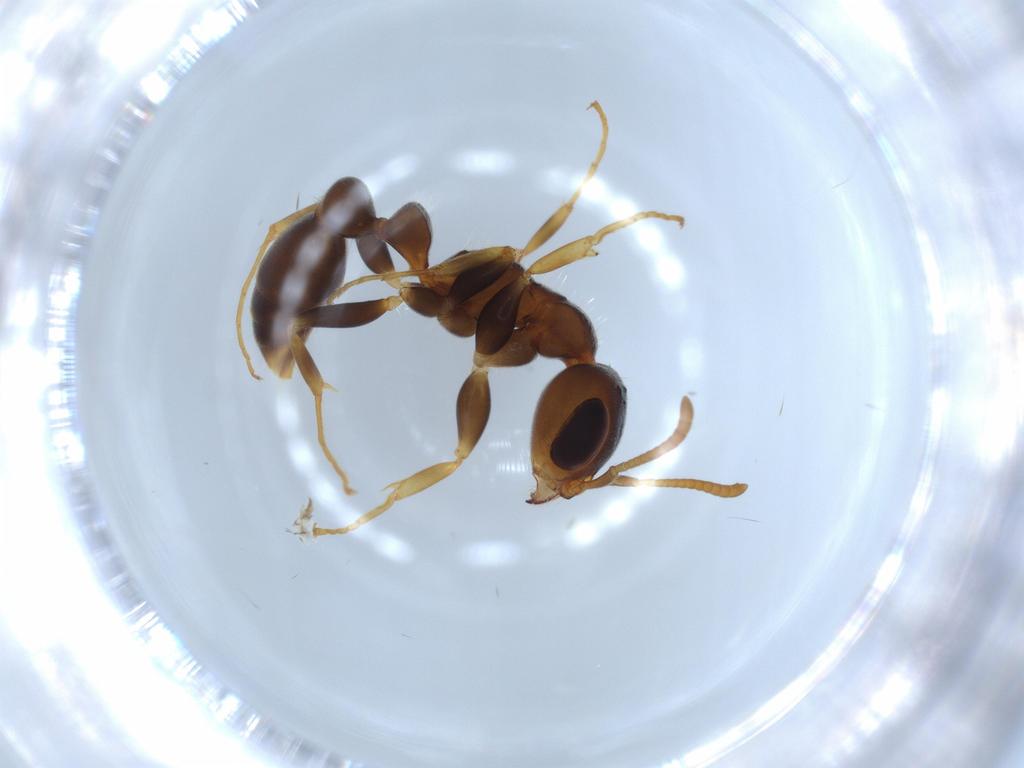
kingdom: Animalia
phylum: Arthropoda
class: Insecta
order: Hymenoptera
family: Formicidae
